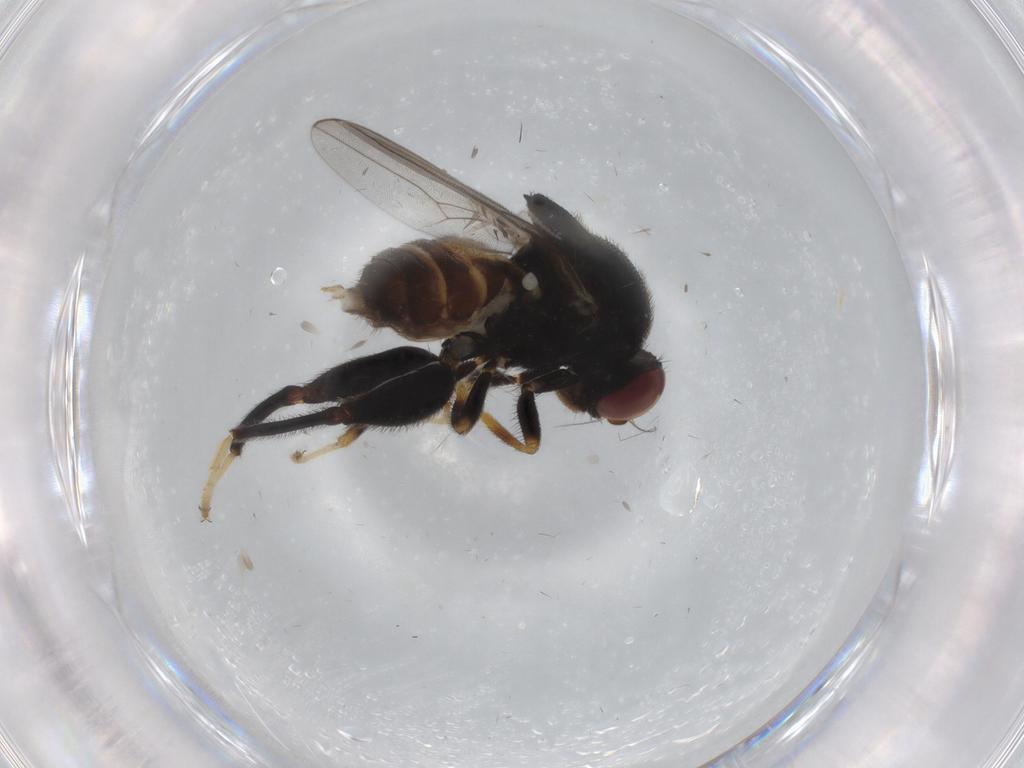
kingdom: Animalia
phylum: Arthropoda
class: Insecta
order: Diptera
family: Chloropidae
